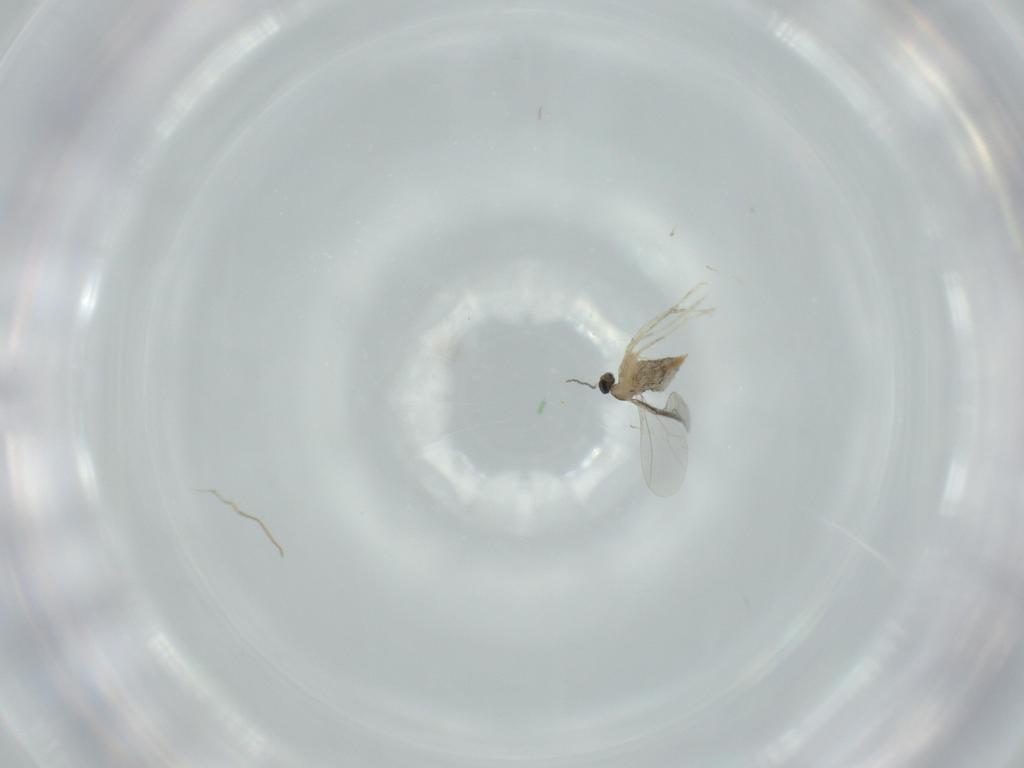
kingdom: Animalia
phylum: Arthropoda
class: Insecta
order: Diptera
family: Cecidomyiidae
